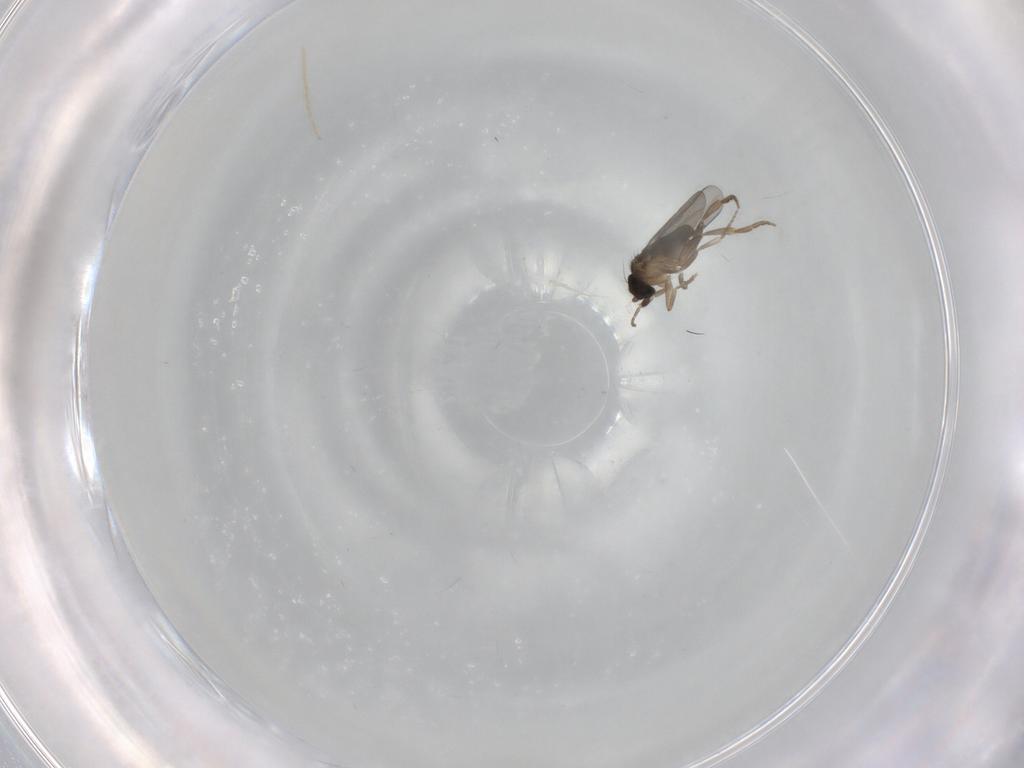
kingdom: Animalia
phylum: Arthropoda
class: Insecta
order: Diptera
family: Chironomidae
